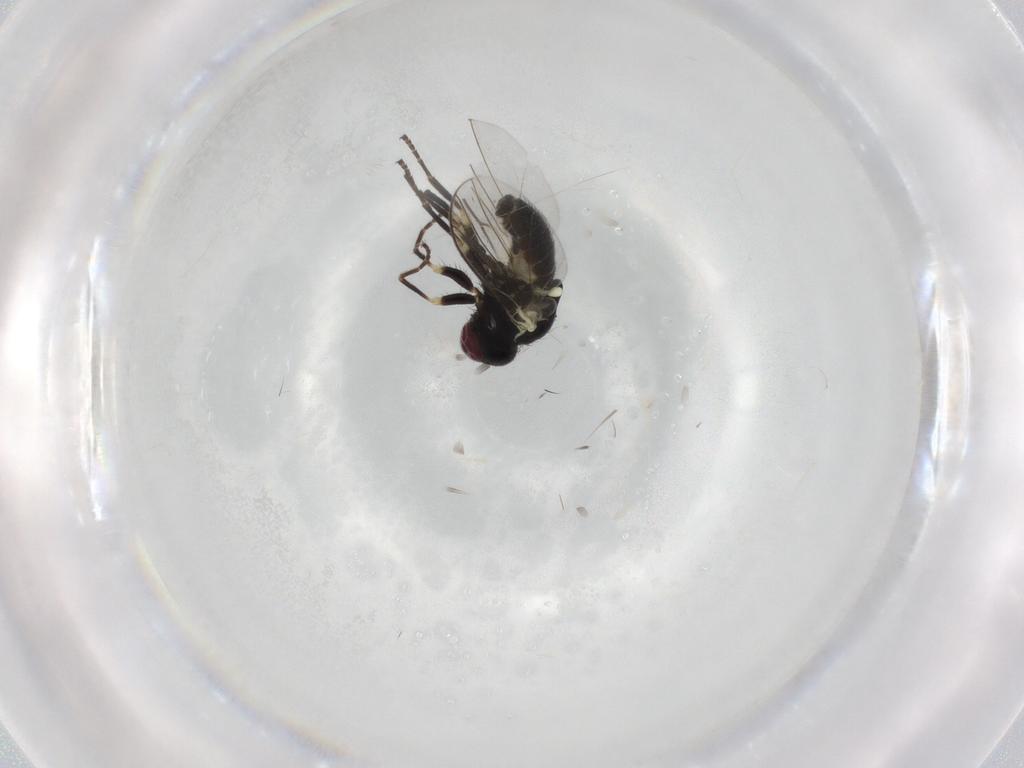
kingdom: Animalia
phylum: Arthropoda
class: Insecta
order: Diptera
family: Agromyzidae
